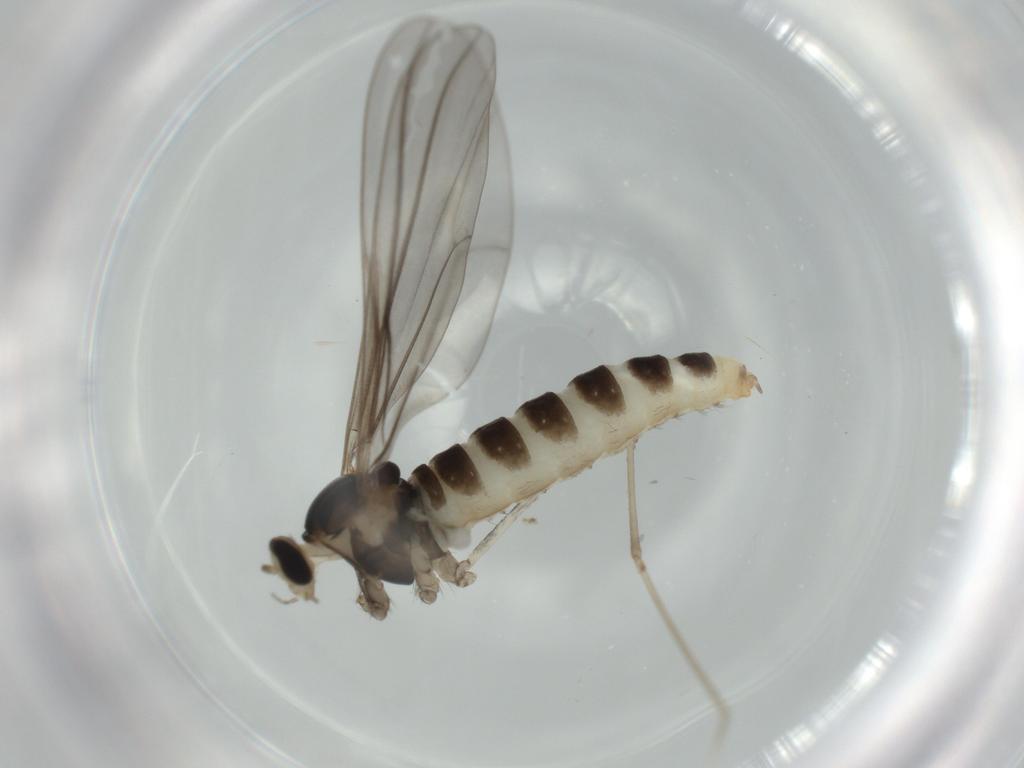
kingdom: Animalia
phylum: Arthropoda
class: Insecta
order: Diptera
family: Sciaridae
